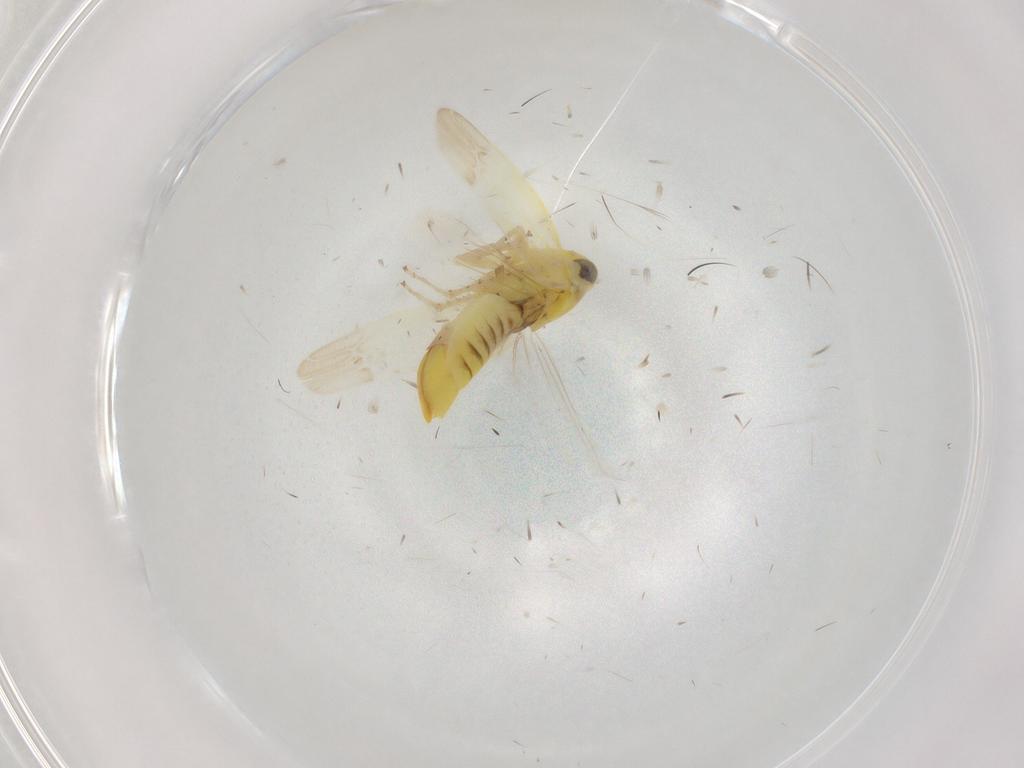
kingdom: Animalia
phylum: Arthropoda
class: Insecta
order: Hemiptera
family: Cicadellidae
